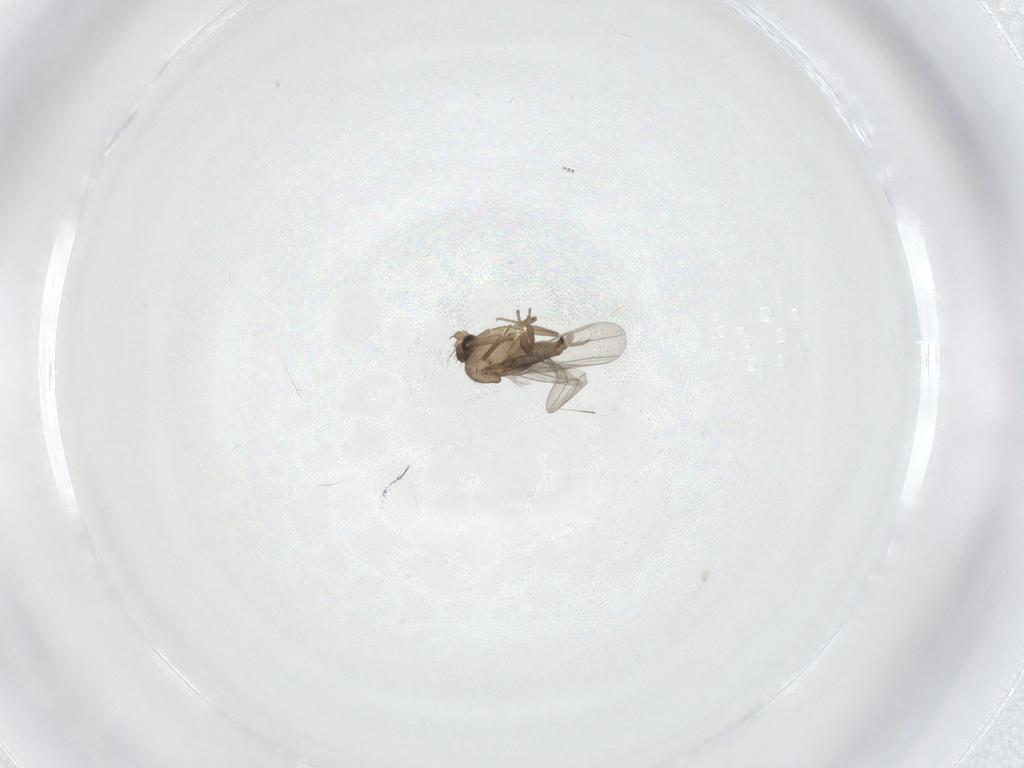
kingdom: Animalia
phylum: Arthropoda
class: Insecta
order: Diptera
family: Psychodidae
